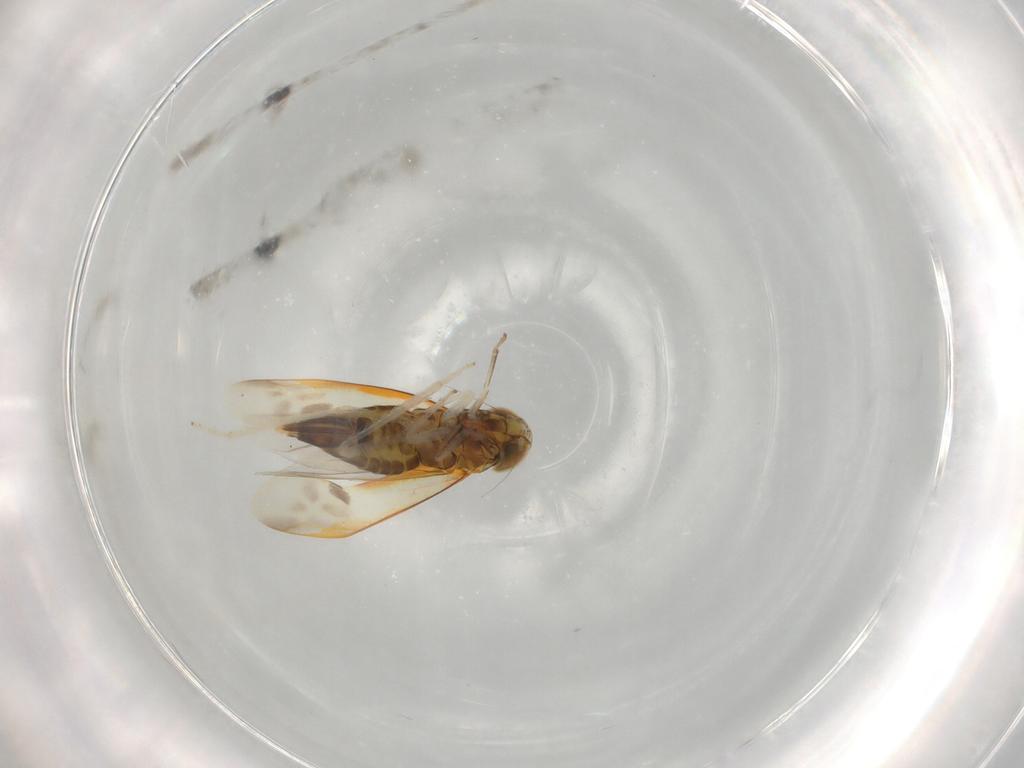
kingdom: Animalia
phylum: Arthropoda
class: Insecta
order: Hemiptera
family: Cicadellidae
